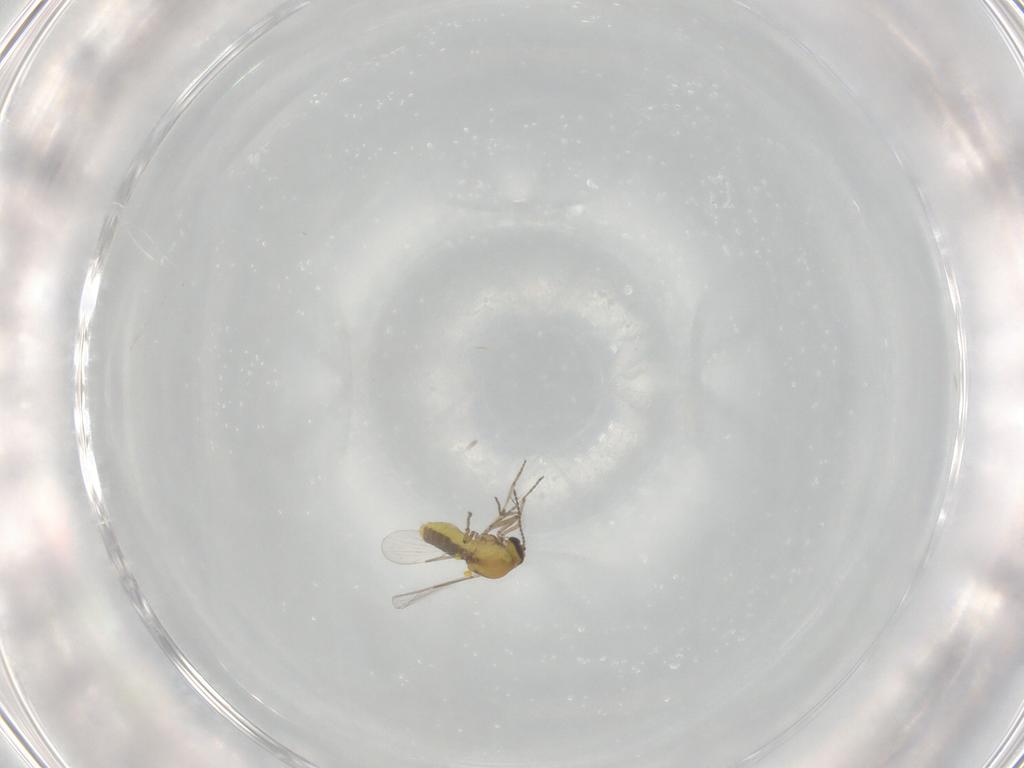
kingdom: Animalia
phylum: Arthropoda
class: Insecta
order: Diptera
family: Ceratopogonidae
